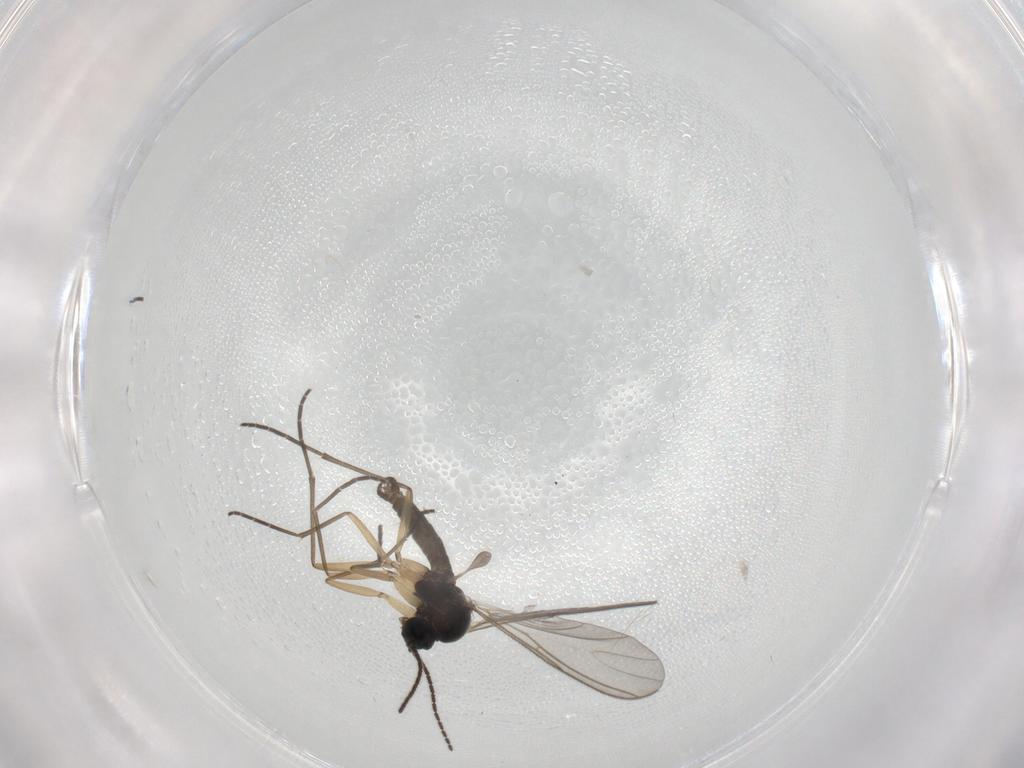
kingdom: Animalia
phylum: Arthropoda
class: Insecta
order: Diptera
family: Sciaridae
